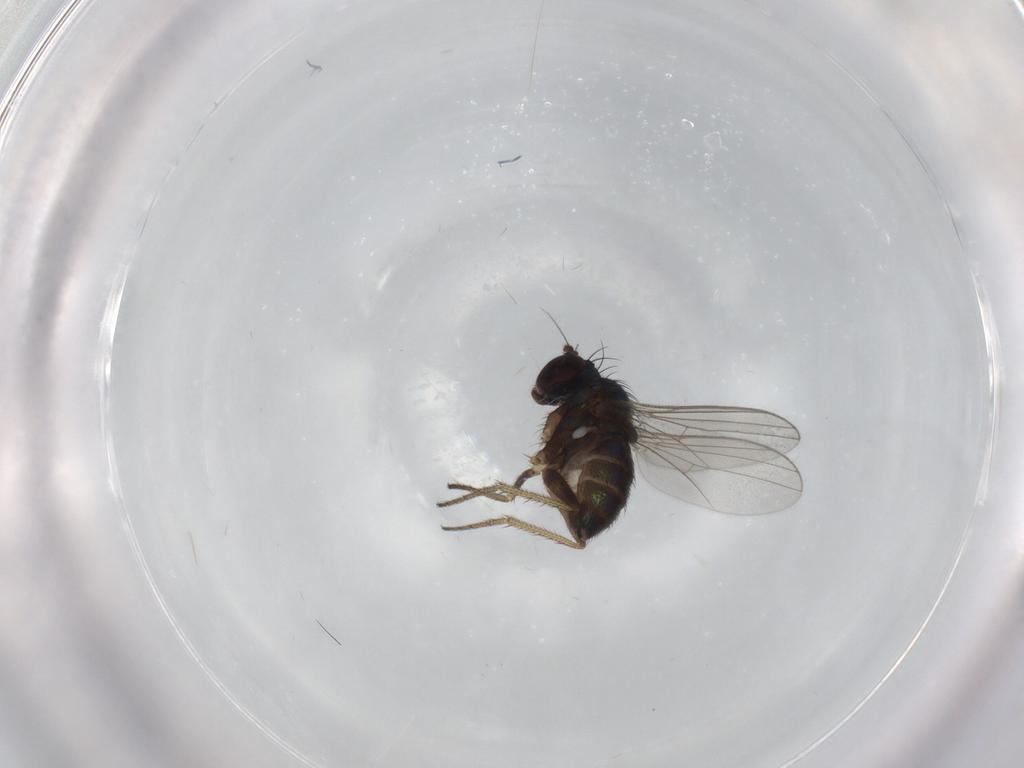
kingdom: Animalia
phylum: Arthropoda
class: Insecta
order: Diptera
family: Dolichopodidae
